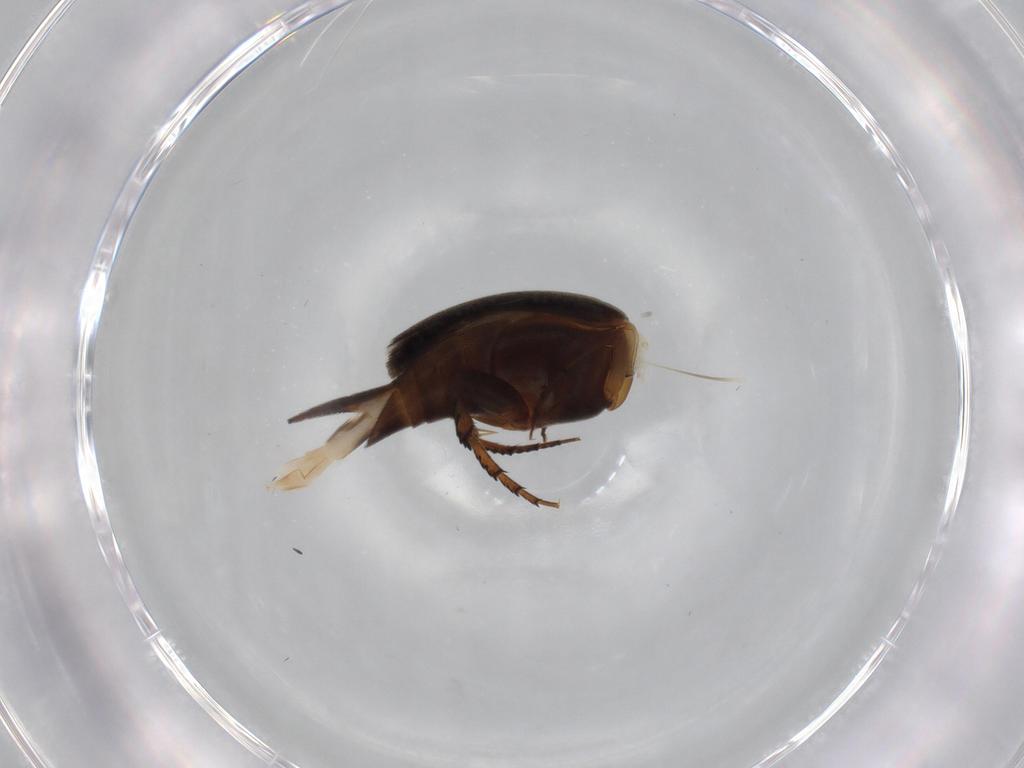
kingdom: Animalia
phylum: Arthropoda
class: Insecta
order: Coleoptera
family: Mordellidae
